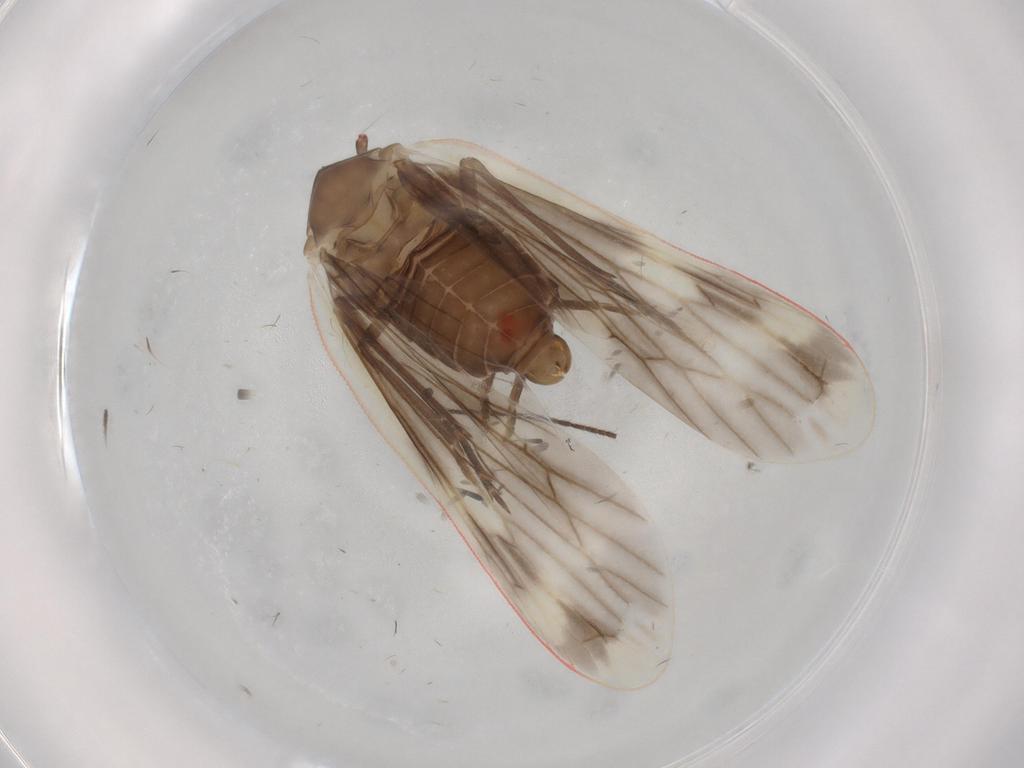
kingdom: Animalia
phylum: Arthropoda
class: Insecta
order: Hemiptera
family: Derbidae
